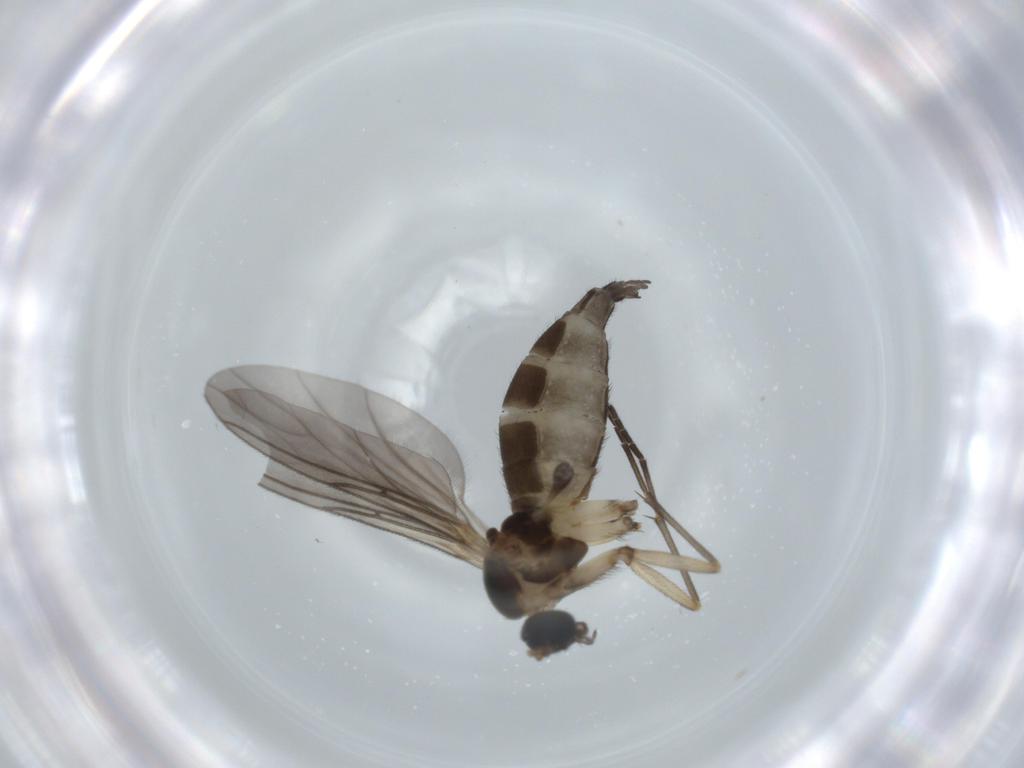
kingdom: Animalia
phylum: Arthropoda
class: Insecta
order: Diptera
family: Sciaridae
